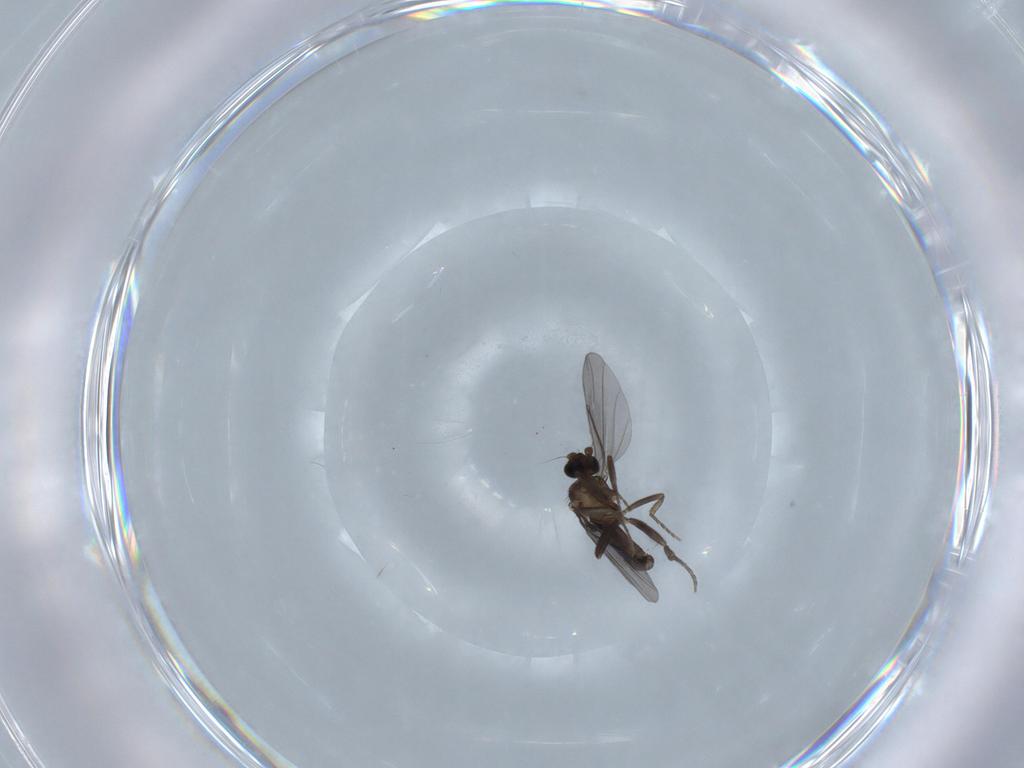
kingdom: Animalia
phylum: Arthropoda
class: Insecta
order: Diptera
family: Phoridae
